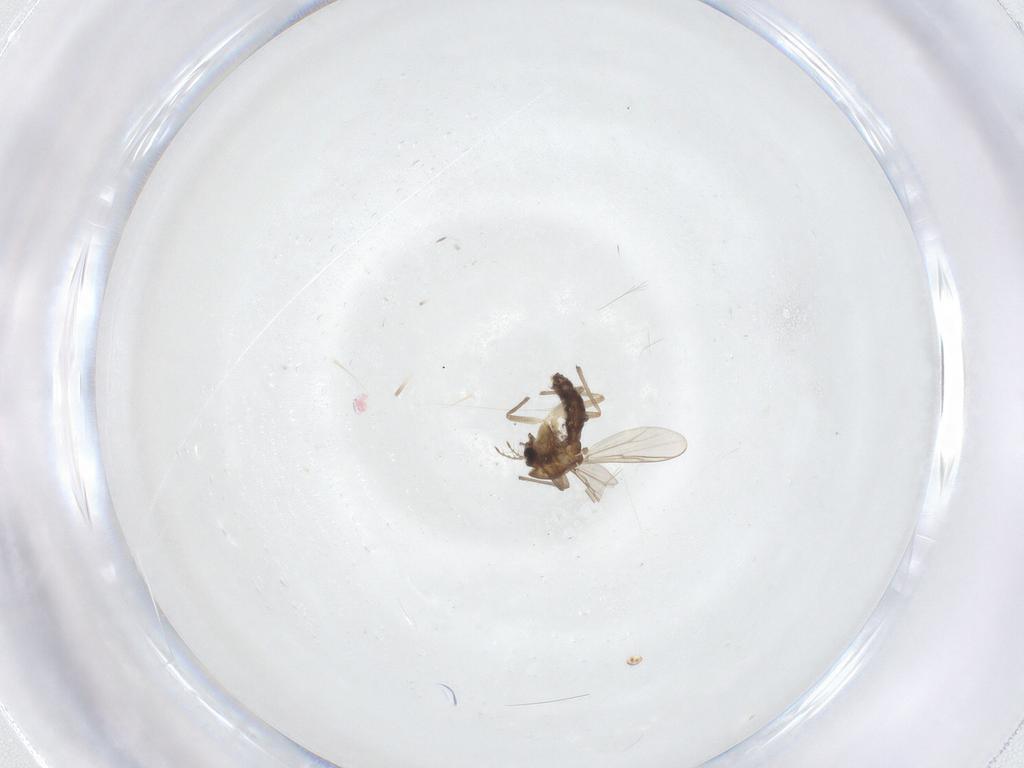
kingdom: Animalia
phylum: Arthropoda
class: Insecta
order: Diptera
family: Chironomidae
